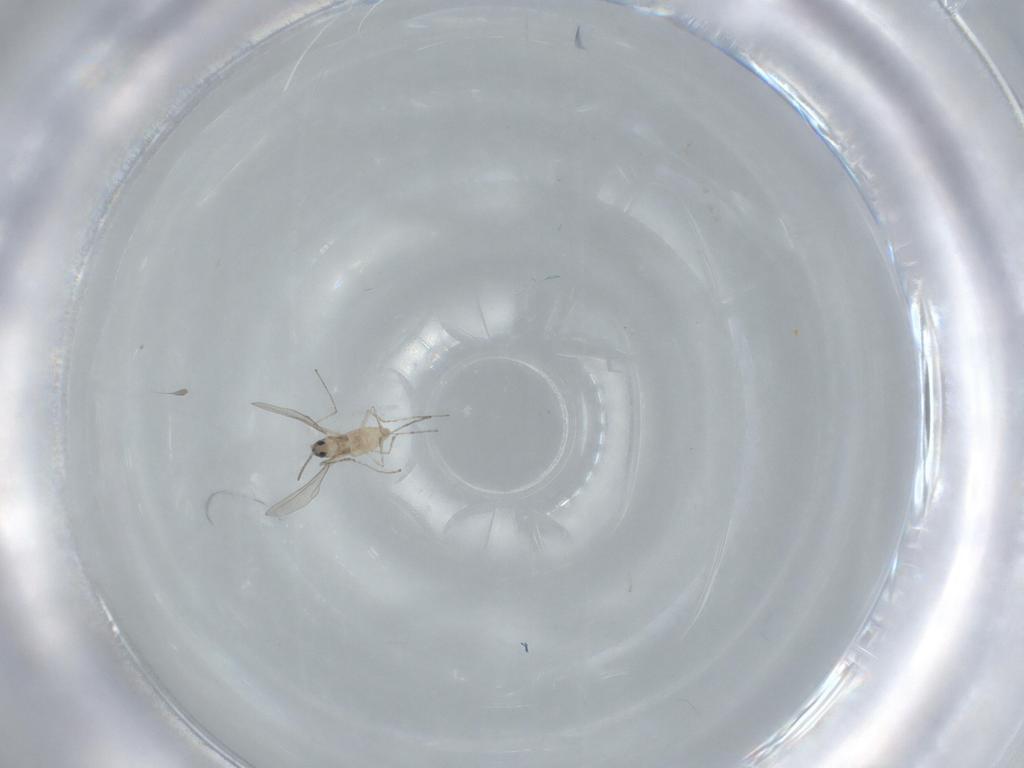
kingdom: Animalia
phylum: Arthropoda
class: Insecta
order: Diptera
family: Cecidomyiidae
